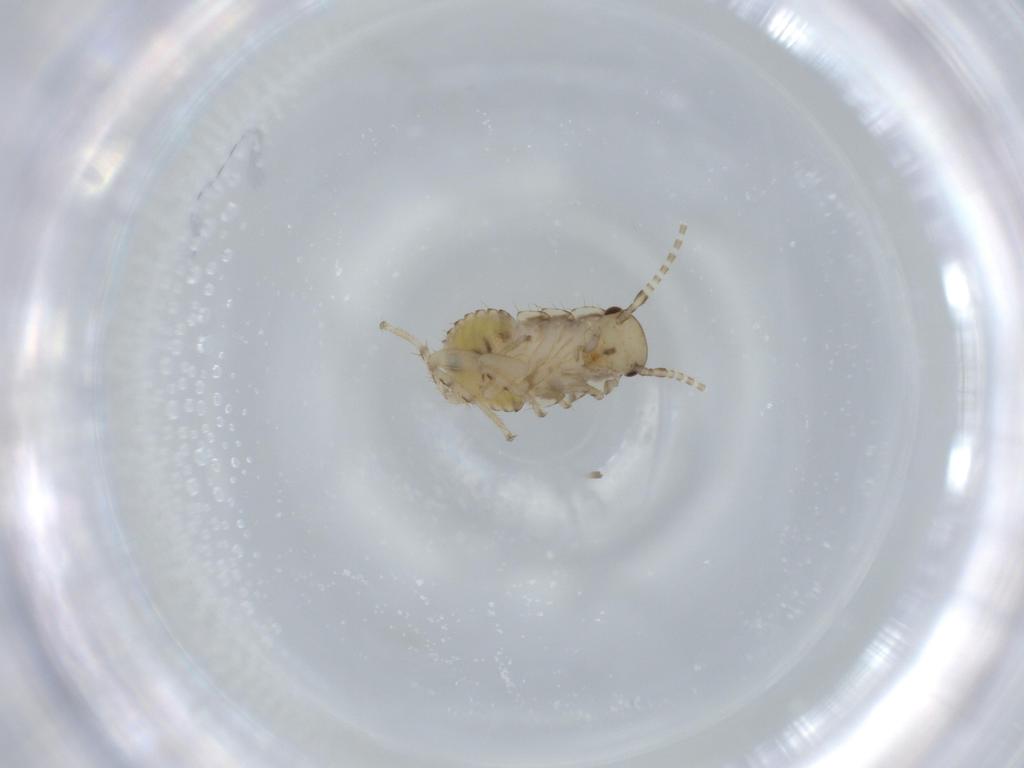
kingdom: Animalia
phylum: Arthropoda
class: Insecta
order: Blattodea
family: Ectobiidae
